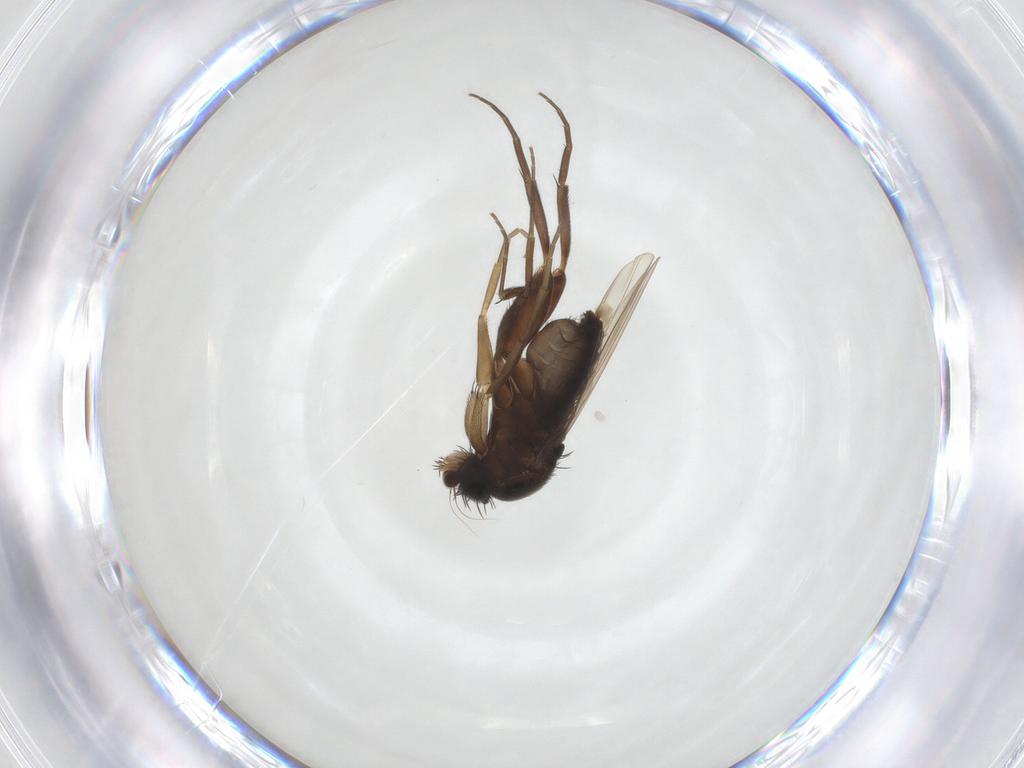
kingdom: Animalia
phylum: Arthropoda
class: Insecta
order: Diptera
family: Phoridae
